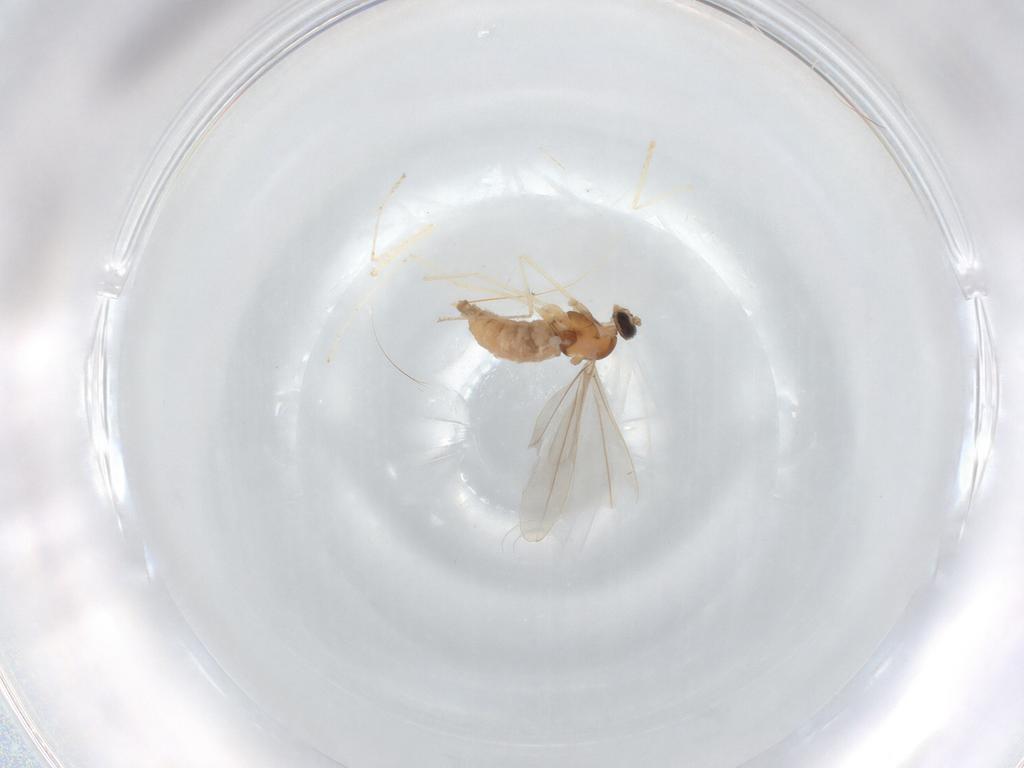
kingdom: Animalia
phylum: Arthropoda
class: Insecta
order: Diptera
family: Cecidomyiidae
